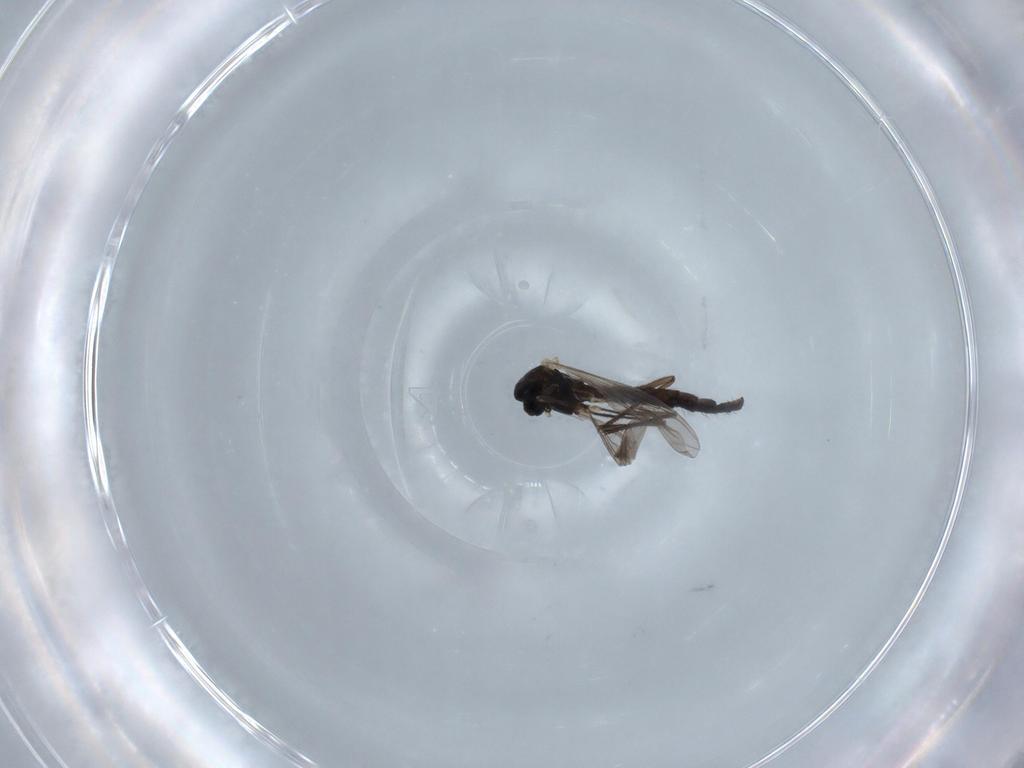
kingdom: Animalia
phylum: Arthropoda
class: Insecta
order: Diptera
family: Chironomidae
